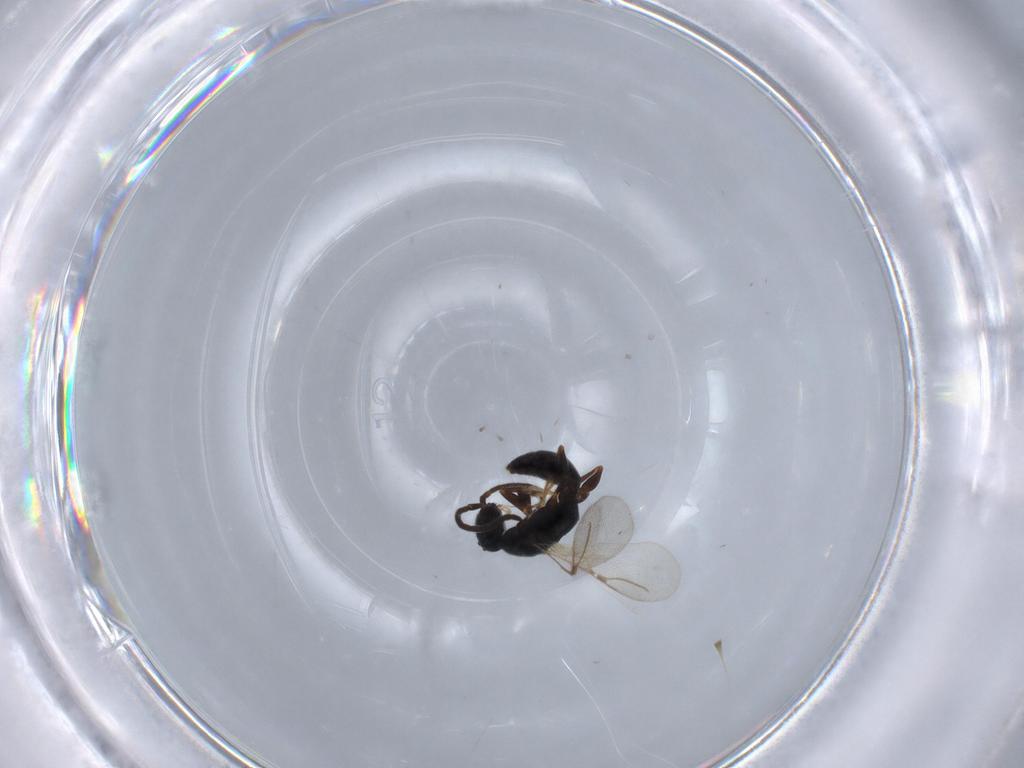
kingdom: Animalia
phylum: Arthropoda
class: Insecta
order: Hymenoptera
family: Bethylidae
